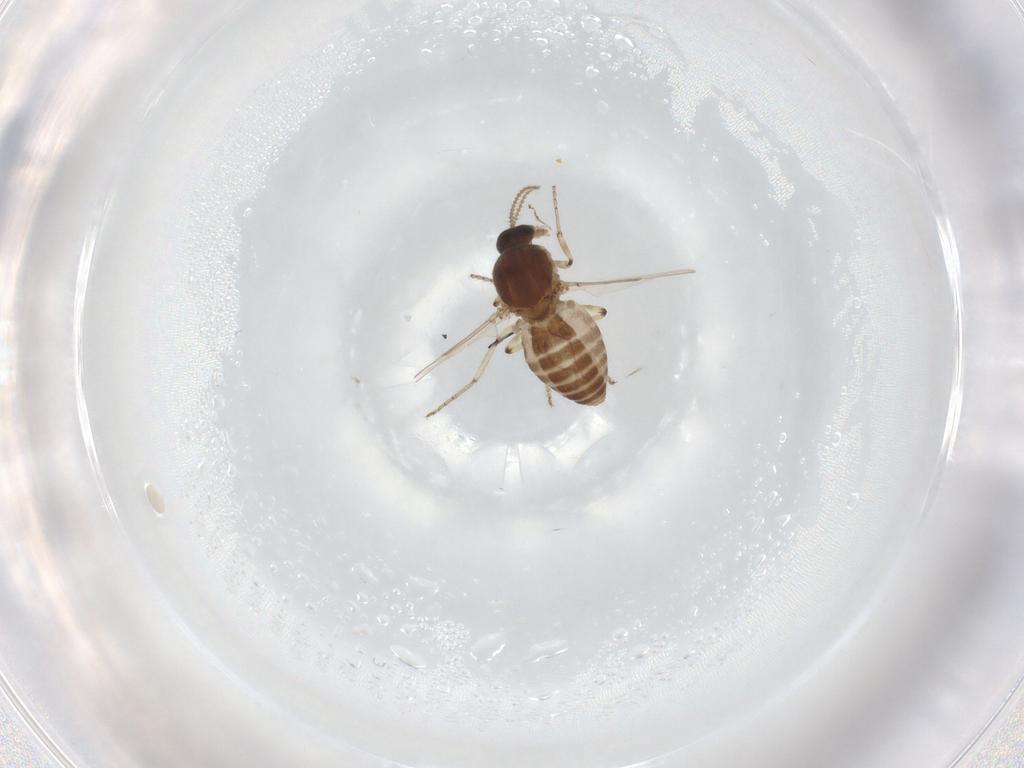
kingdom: Animalia
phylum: Arthropoda
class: Insecta
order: Diptera
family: Ceratopogonidae
